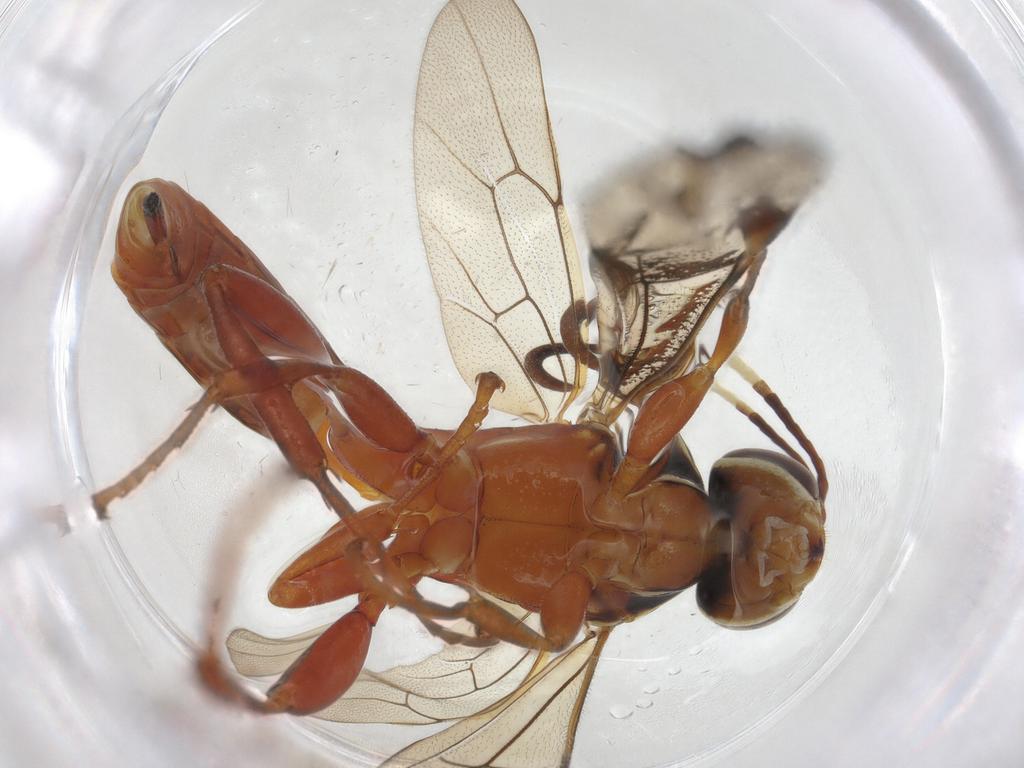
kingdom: Animalia
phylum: Arthropoda
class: Insecta
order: Hymenoptera
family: Ichneumonidae
